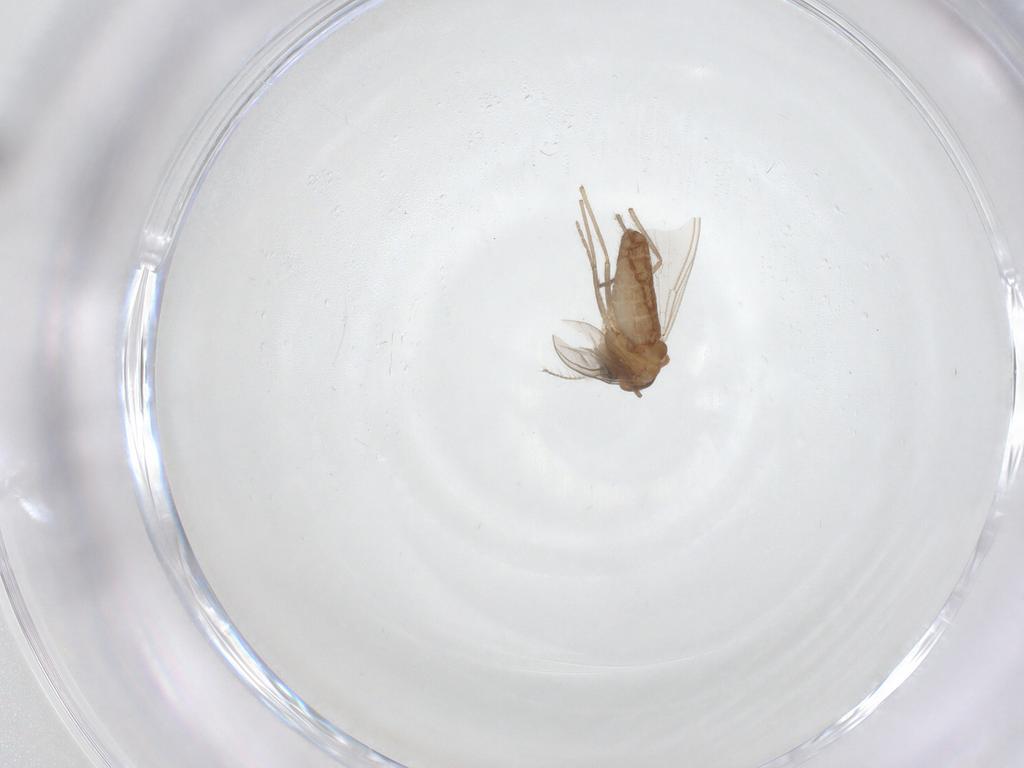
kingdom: Animalia
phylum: Arthropoda
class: Insecta
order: Diptera
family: Chironomidae
